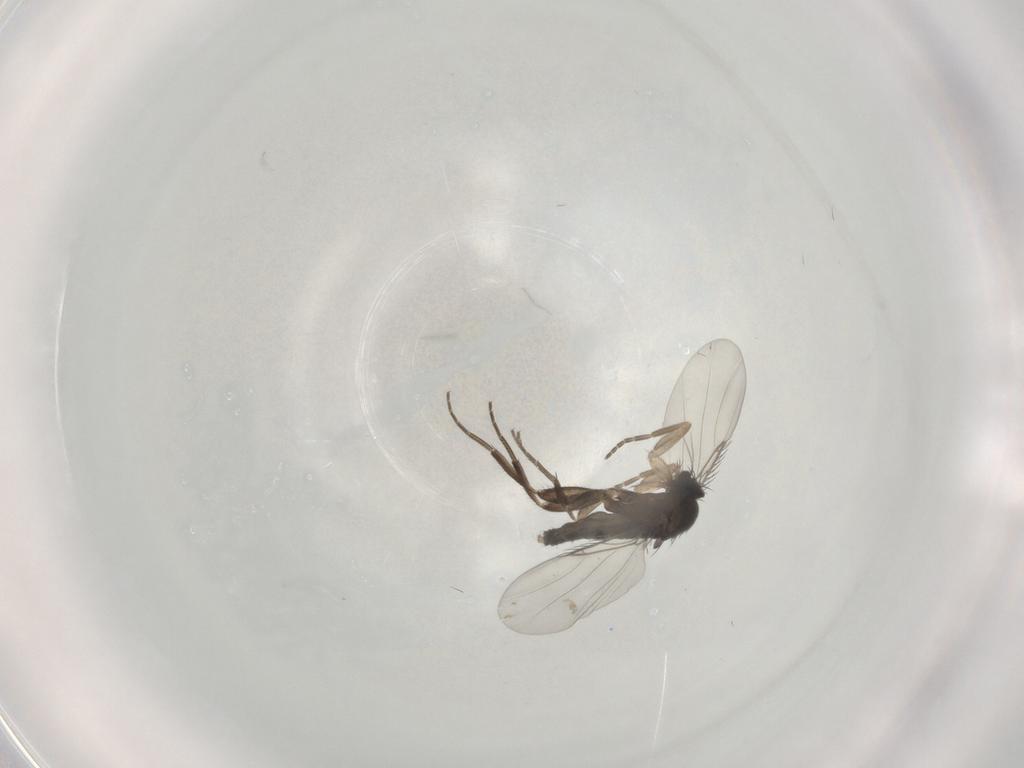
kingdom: Animalia
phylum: Arthropoda
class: Insecta
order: Diptera
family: Phoridae
